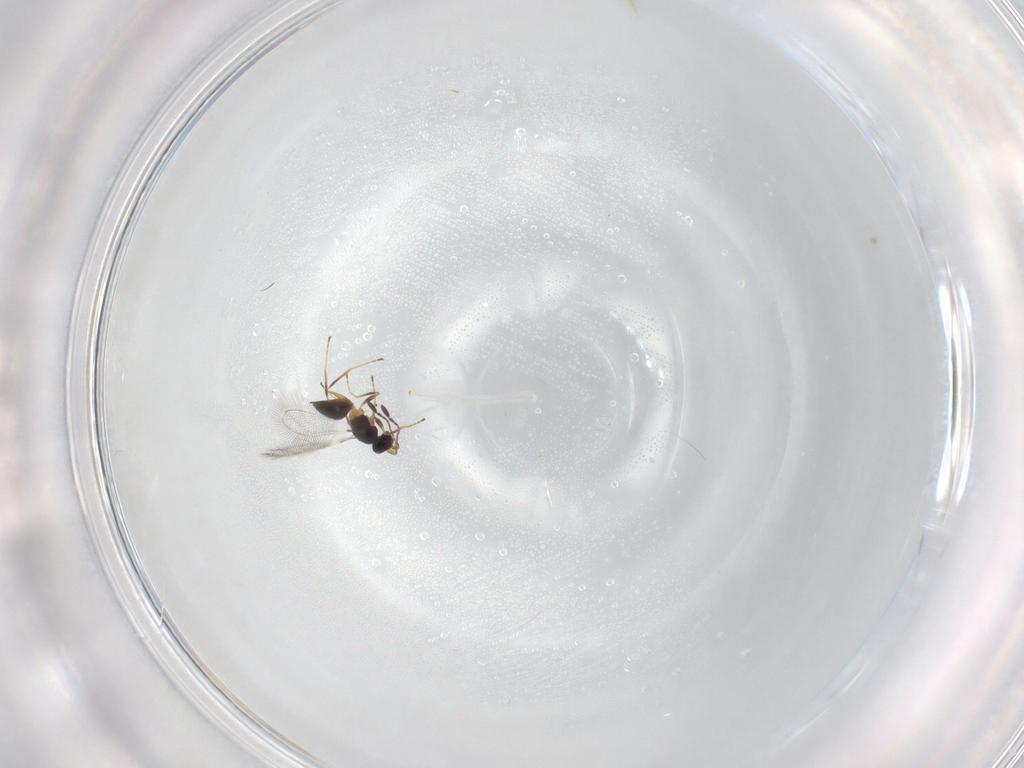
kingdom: Animalia
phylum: Arthropoda
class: Insecta
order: Hymenoptera
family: Mymaridae
